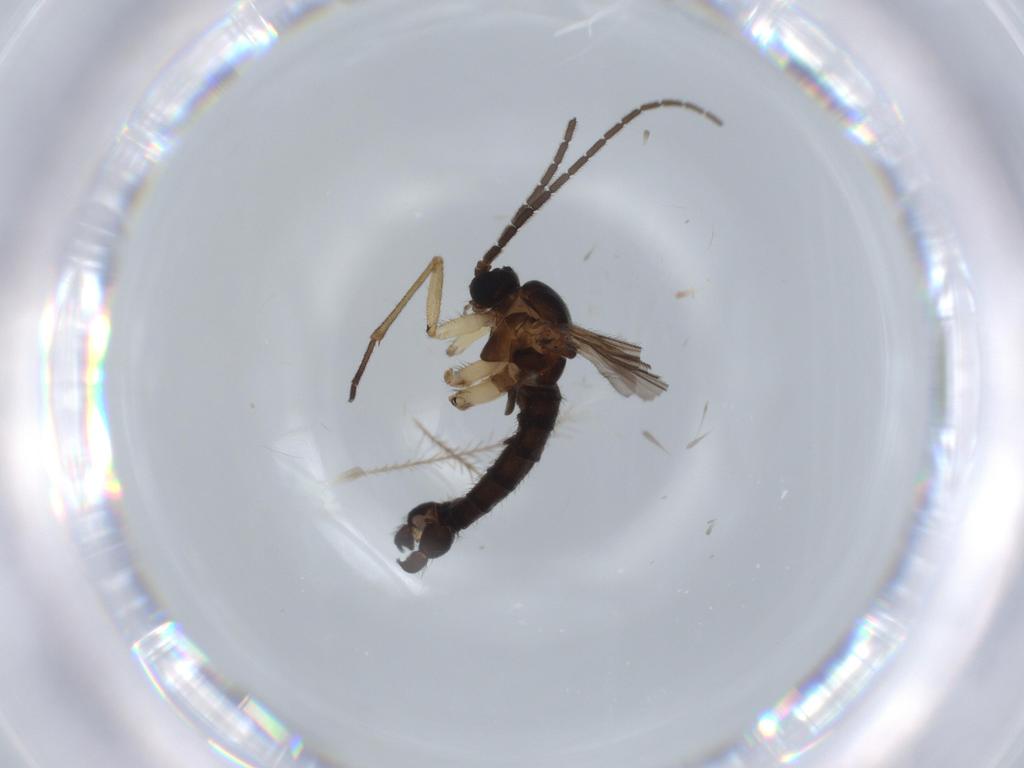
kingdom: Animalia
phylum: Arthropoda
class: Insecta
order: Diptera
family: Sciaridae
